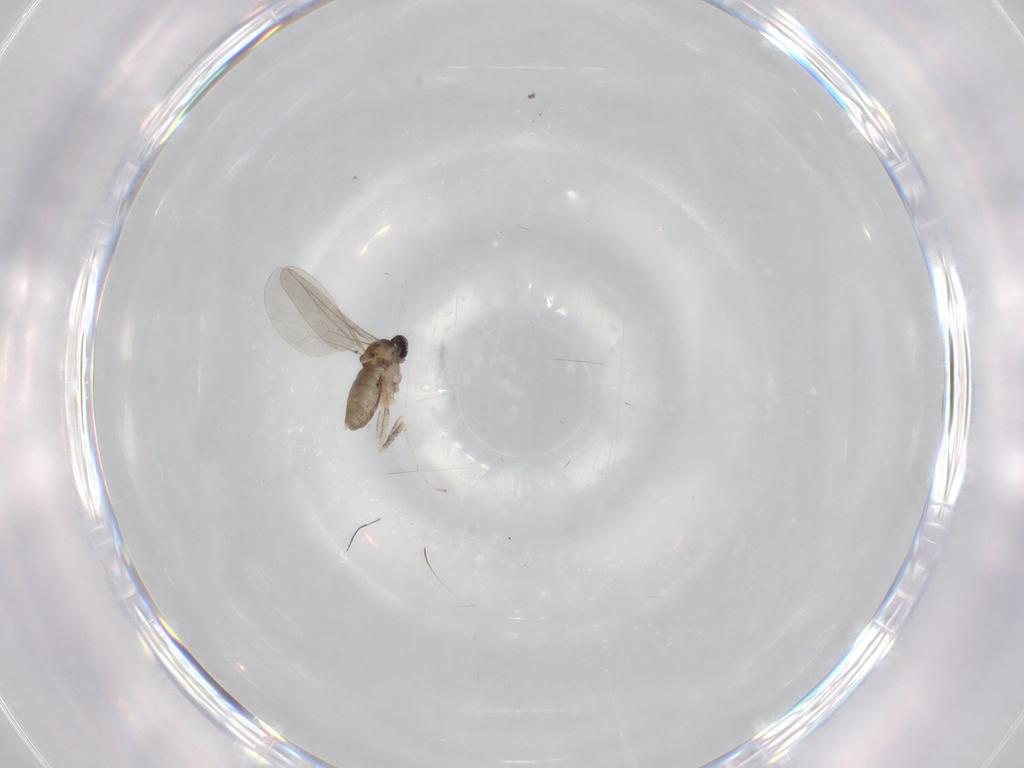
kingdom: Animalia
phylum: Arthropoda
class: Insecta
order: Diptera
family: Cecidomyiidae
